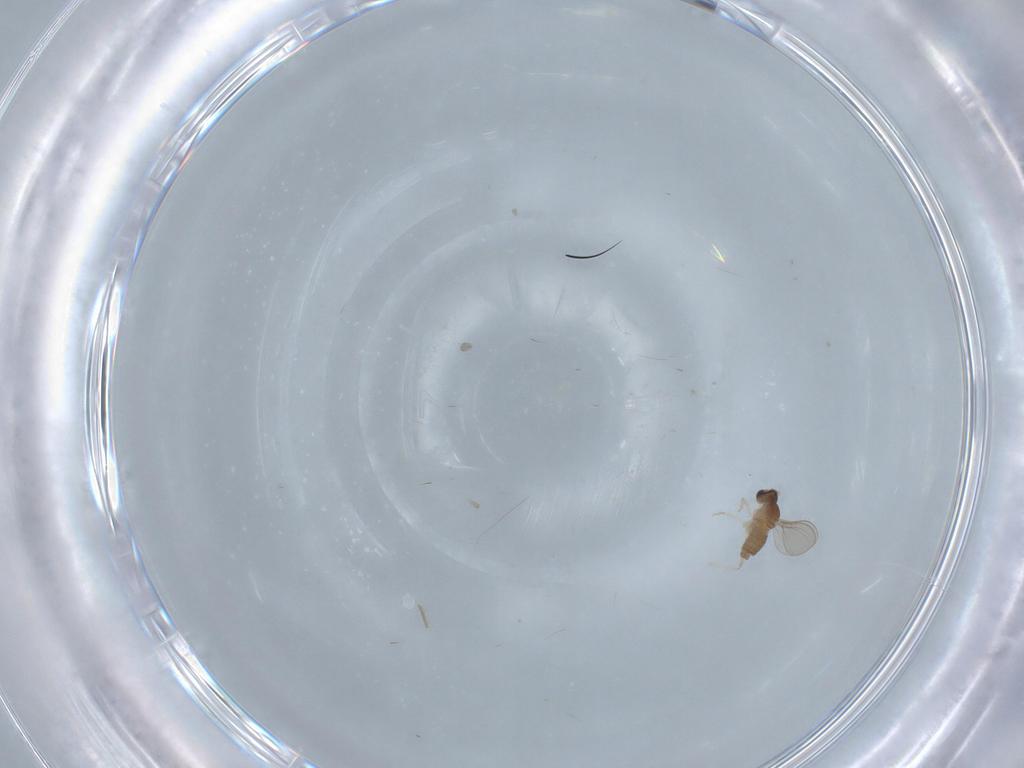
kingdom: Animalia
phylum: Arthropoda
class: Insecta
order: Diptera
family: Cecidomyiidae
